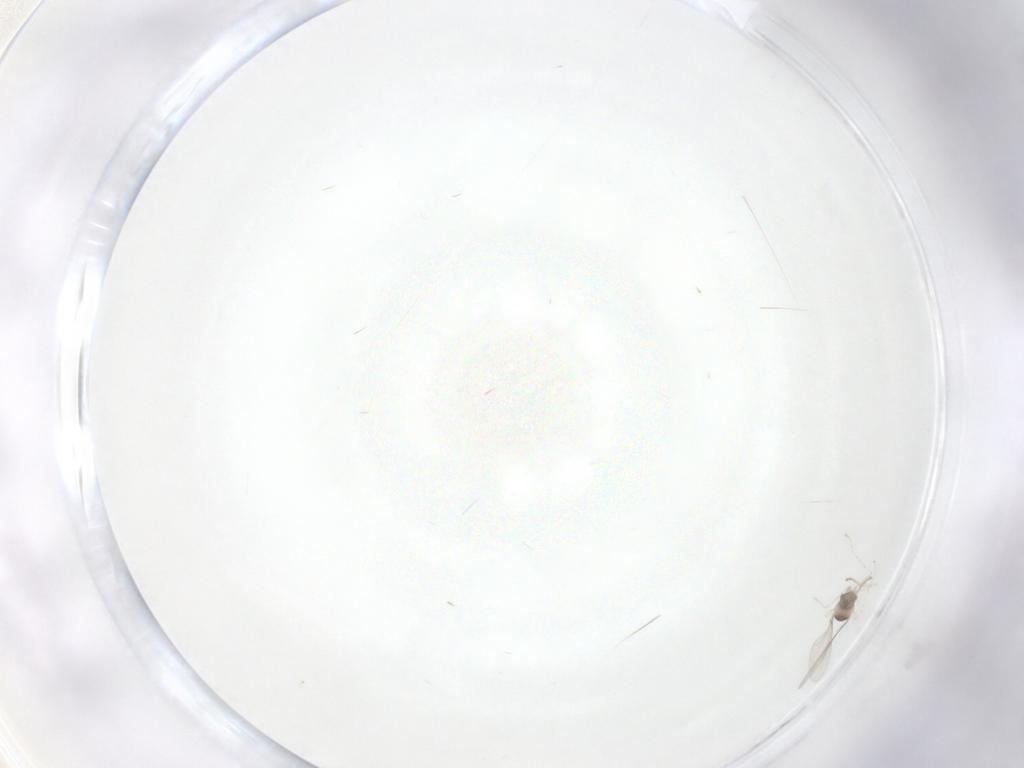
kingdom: Animalia
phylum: Arthropoda
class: Insecta
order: Diptera
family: Cecidomyiidae
